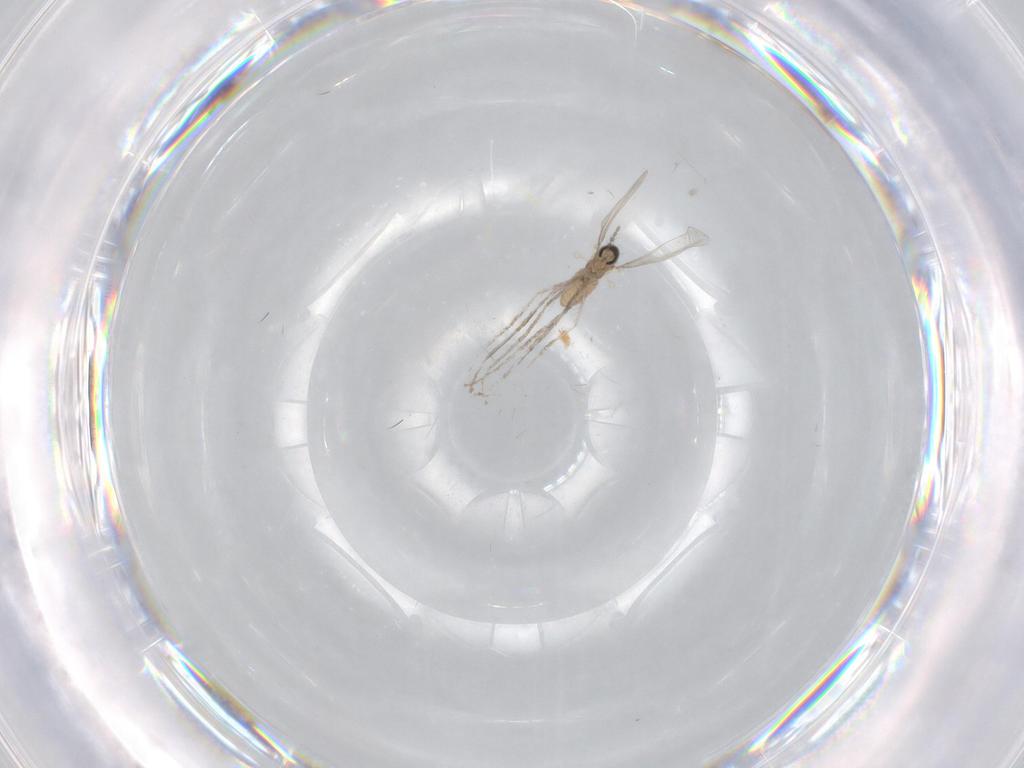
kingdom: Animalia
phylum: Arthropoda
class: Insecta
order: Diptera
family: Cecidomyiidae
